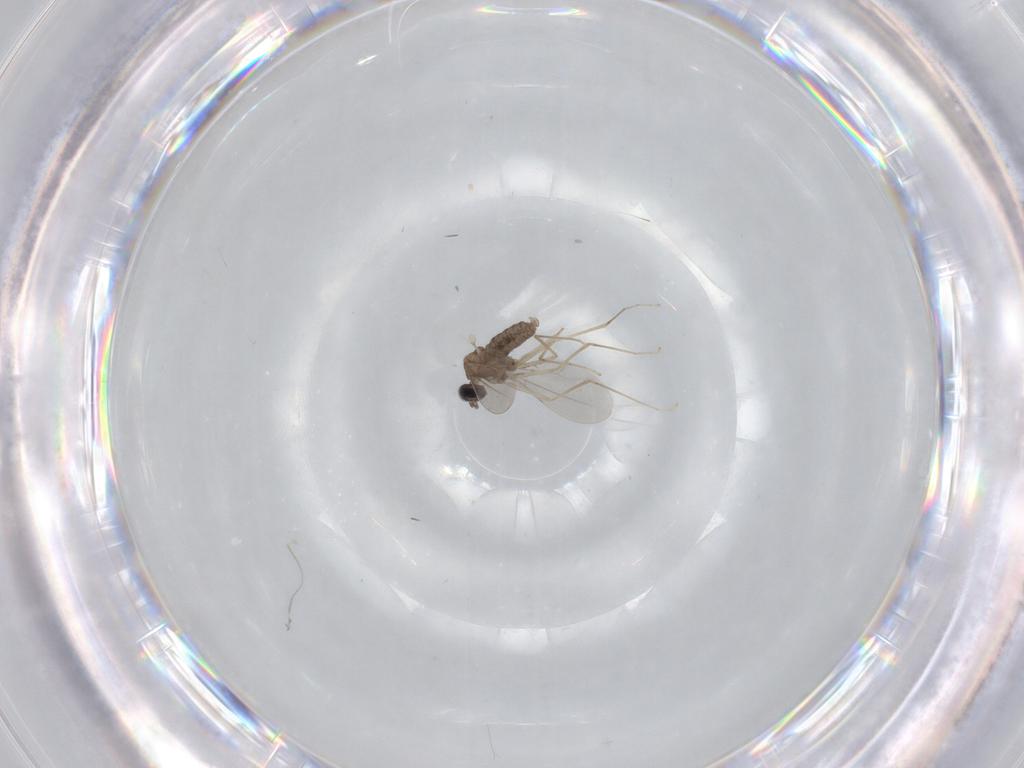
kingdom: Animalia
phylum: Arthropoda
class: Insecta
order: Diptera
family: Cecidomyiidae
